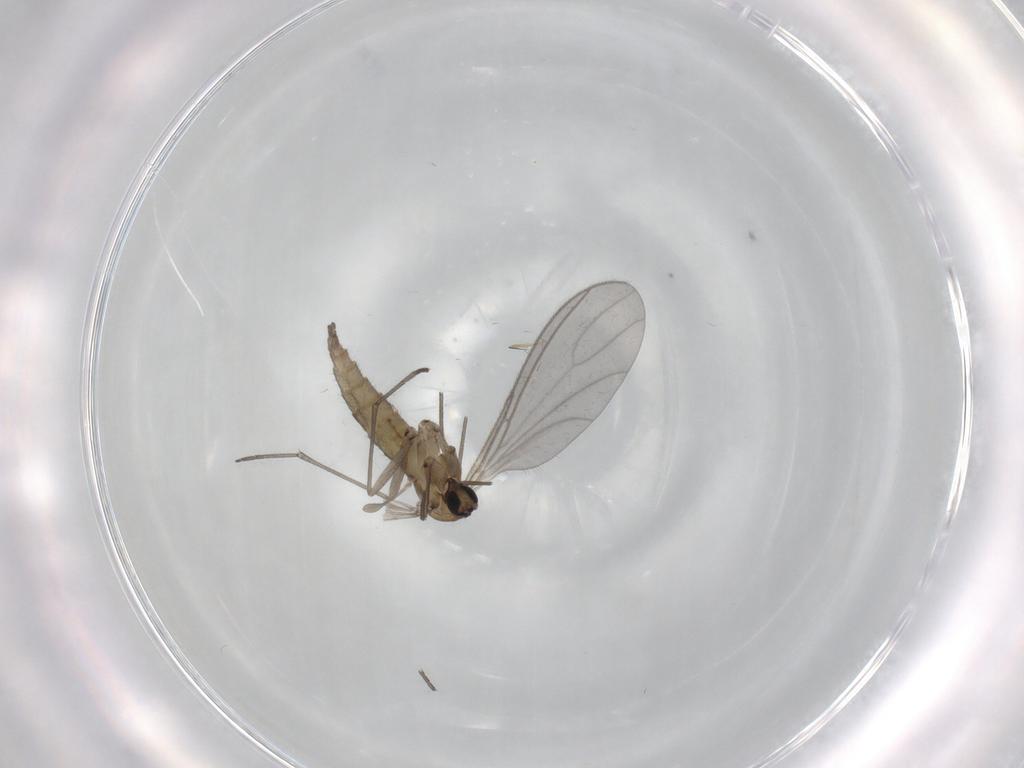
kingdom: Animalia
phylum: Arthropoda
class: Insecta
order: Diptera
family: Sciaridae
